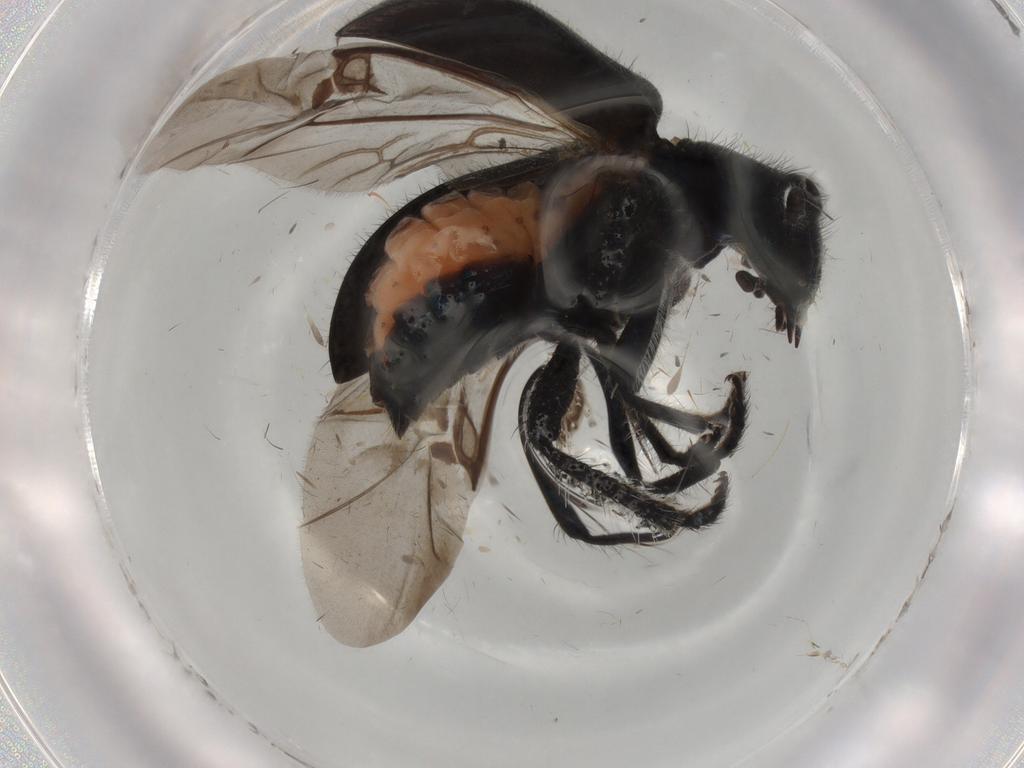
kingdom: Animalia
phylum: Arthropoda
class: Insecta
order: Coleoptera
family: Cleridae
